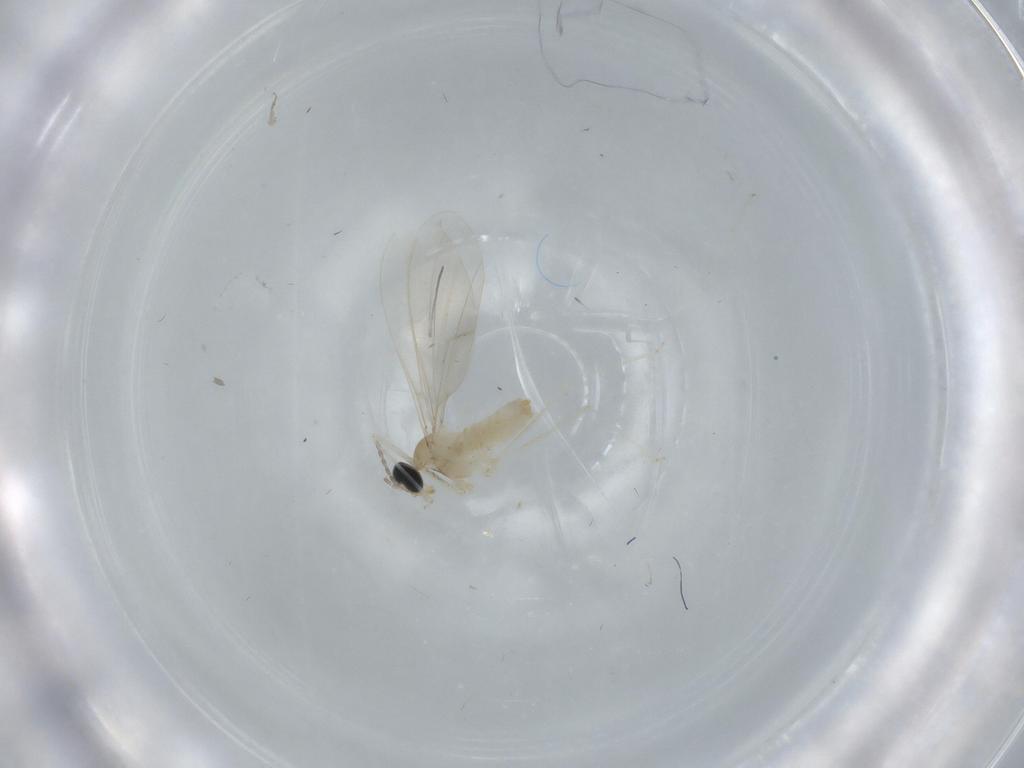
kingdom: Animalia
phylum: Arthropoda
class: Insecta
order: Diptera
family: Cecidomyiidae
